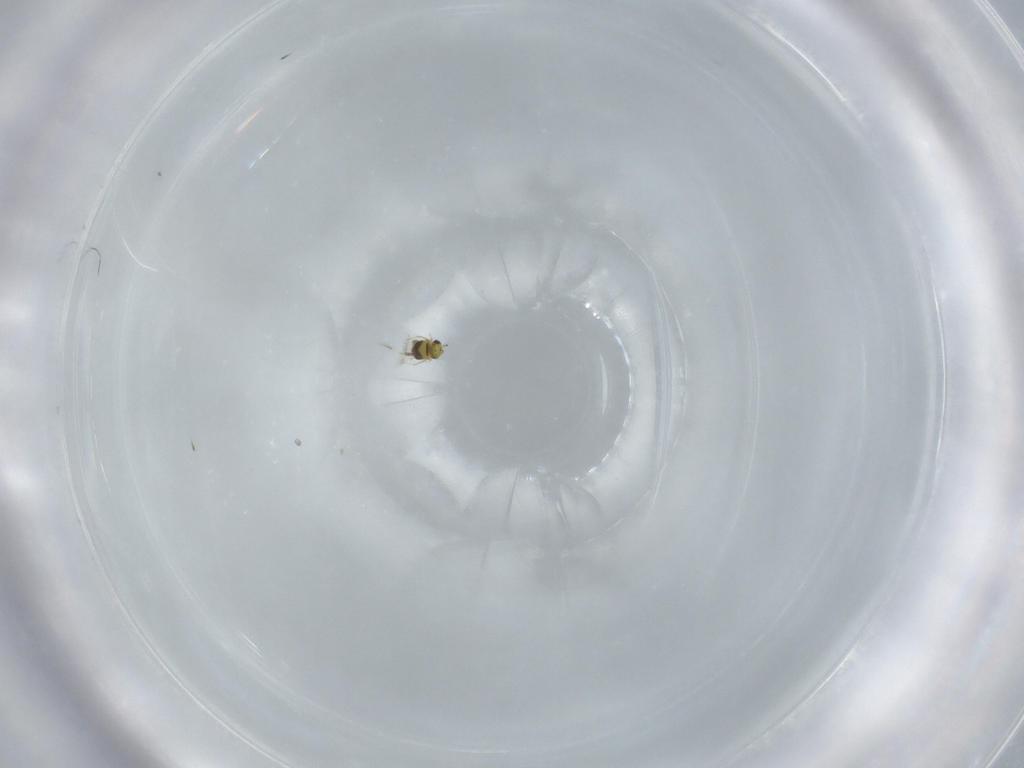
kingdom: Animalia
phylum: Arthropoda
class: Insecta
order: Hymenoptera
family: Signiphoridae
